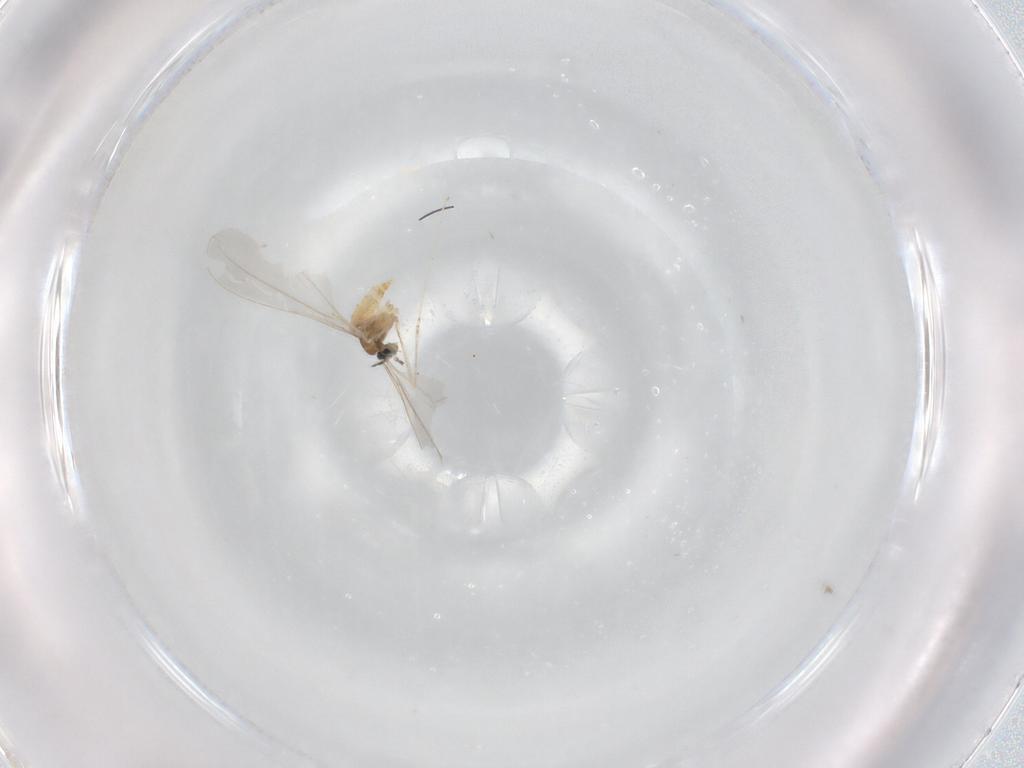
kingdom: Animalia
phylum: Arthropoda
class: Insecta
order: Diptera
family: Cecidomyiidae
